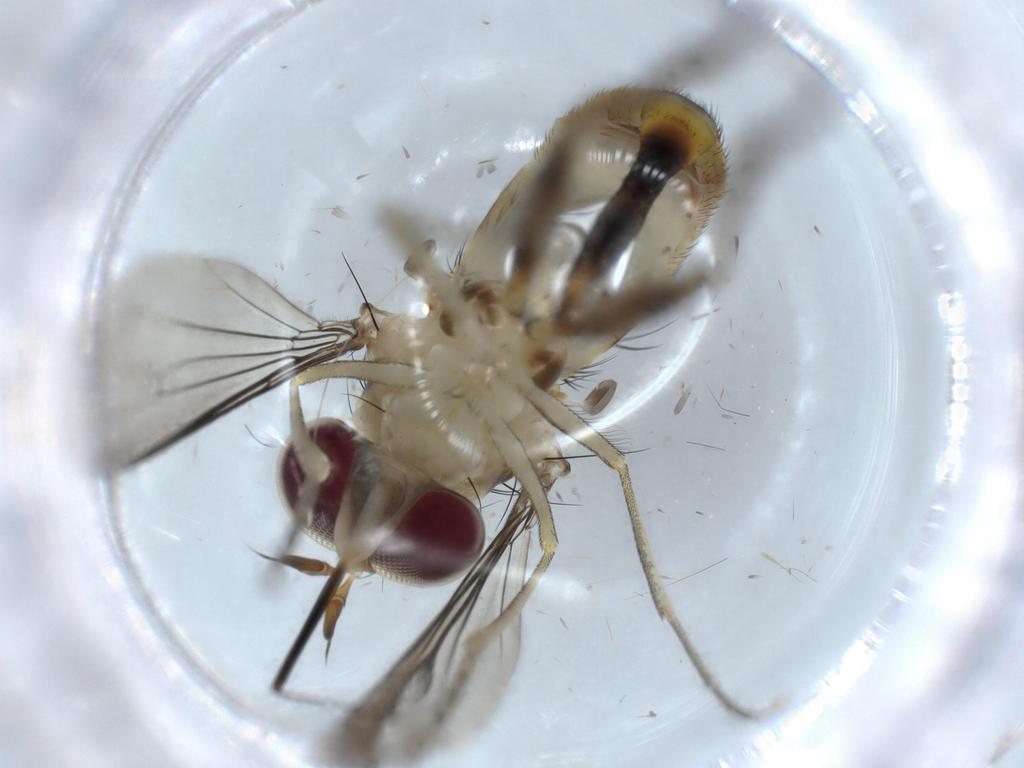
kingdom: Animalia
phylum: Arthropoda
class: Insecta
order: Diptera
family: Conopidae
